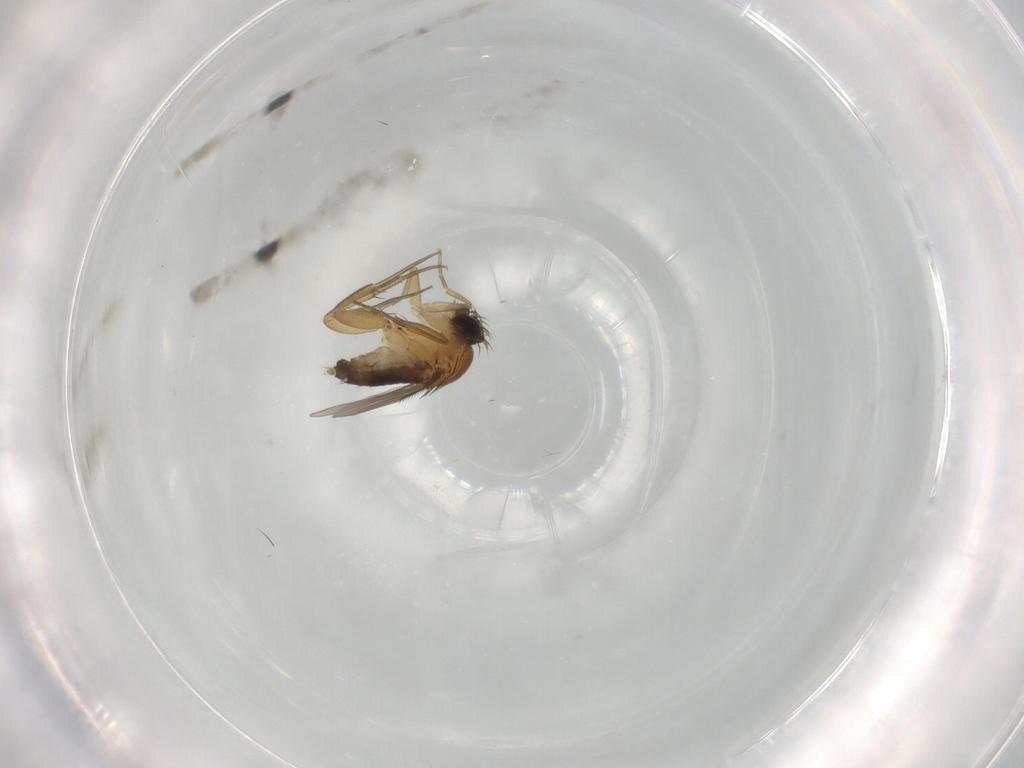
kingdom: Animalia
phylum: Arthropoda
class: Insecta
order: Diptera
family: Phoridae
